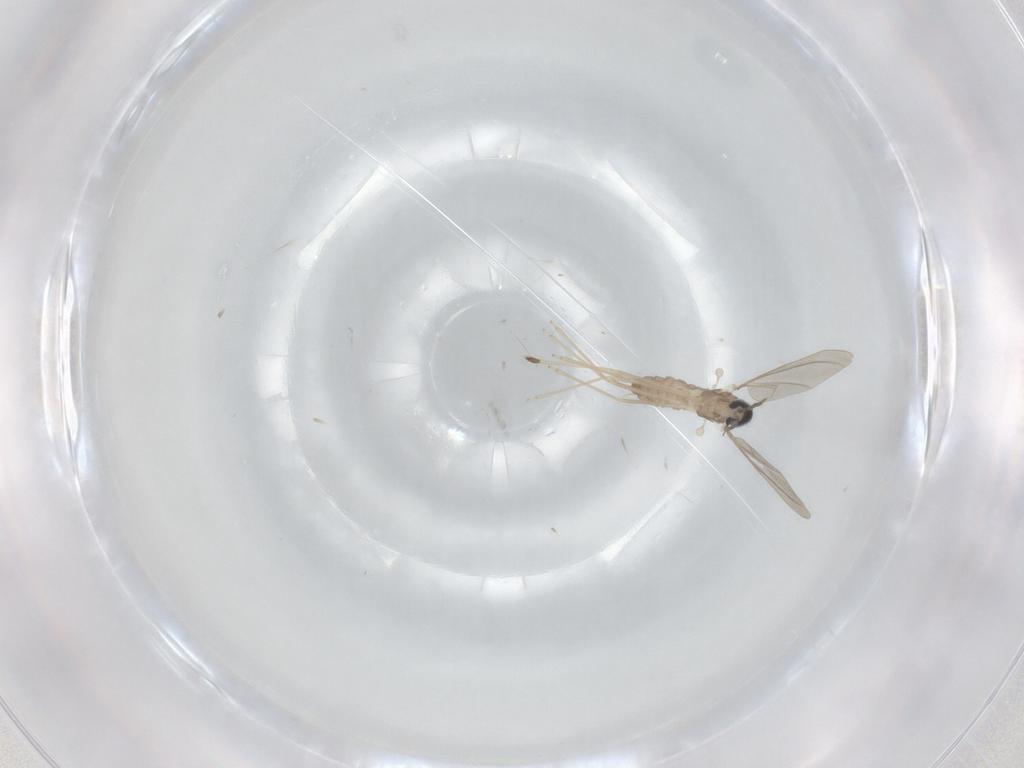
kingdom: Animalia
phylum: Arthropoda
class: Insecta
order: Diptera
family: Cecidomyiidae
